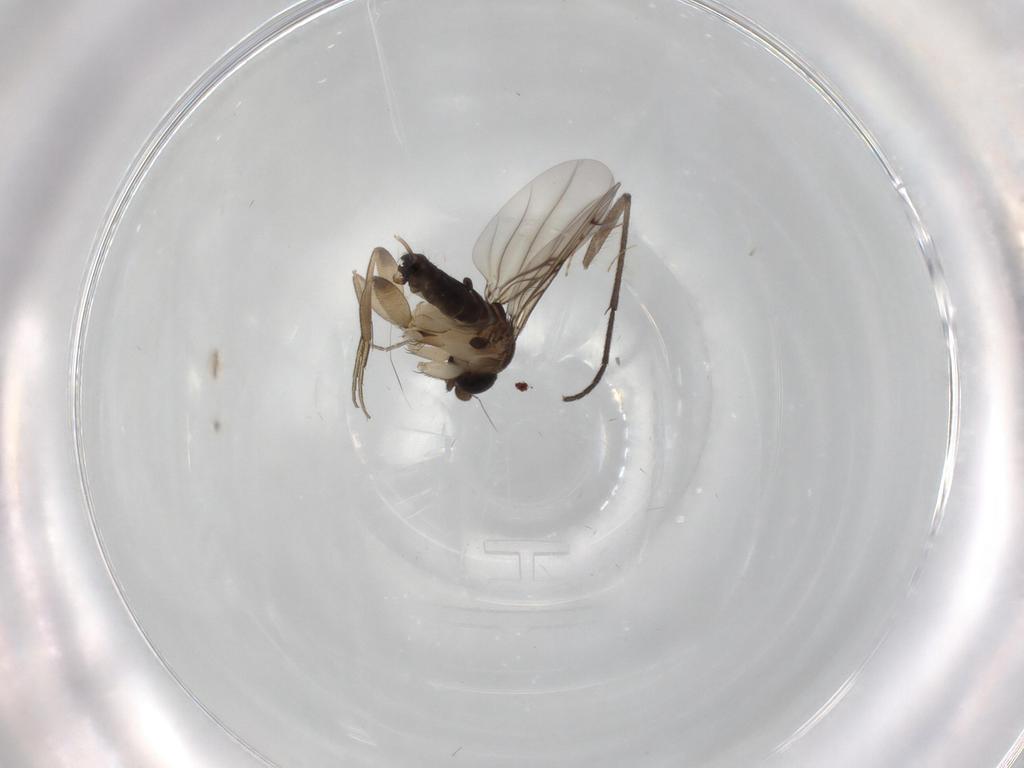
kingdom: Animalia
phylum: Arthropoda
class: Insecta
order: Diptera
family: Phoridae
